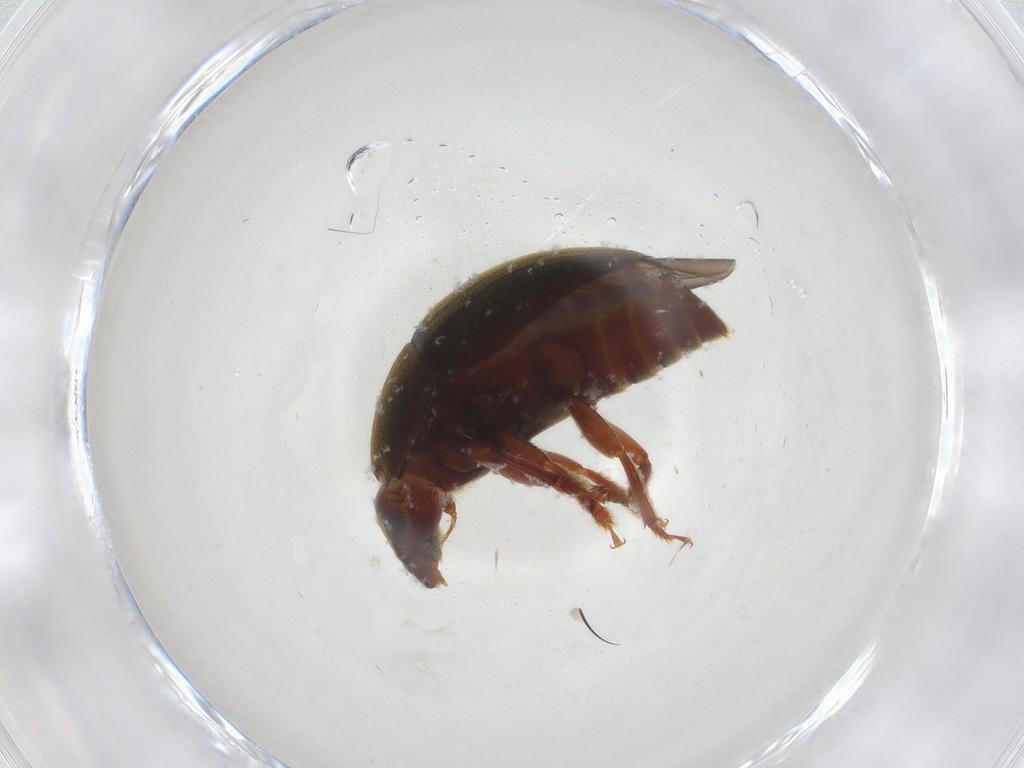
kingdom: Animalia
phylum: Arthropoda
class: Insecta
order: Coleoptera
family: Nitidulidae
